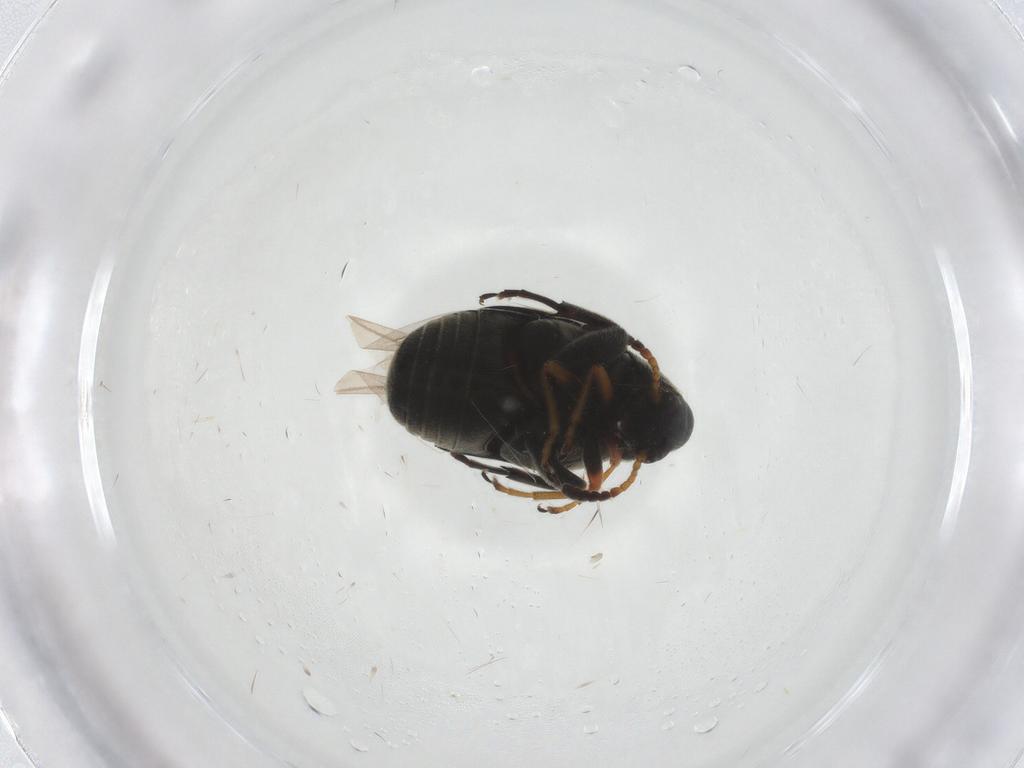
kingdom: Animalia
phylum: Arthropoda
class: Insecta
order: Coleoptera
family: Chrysomelidae
